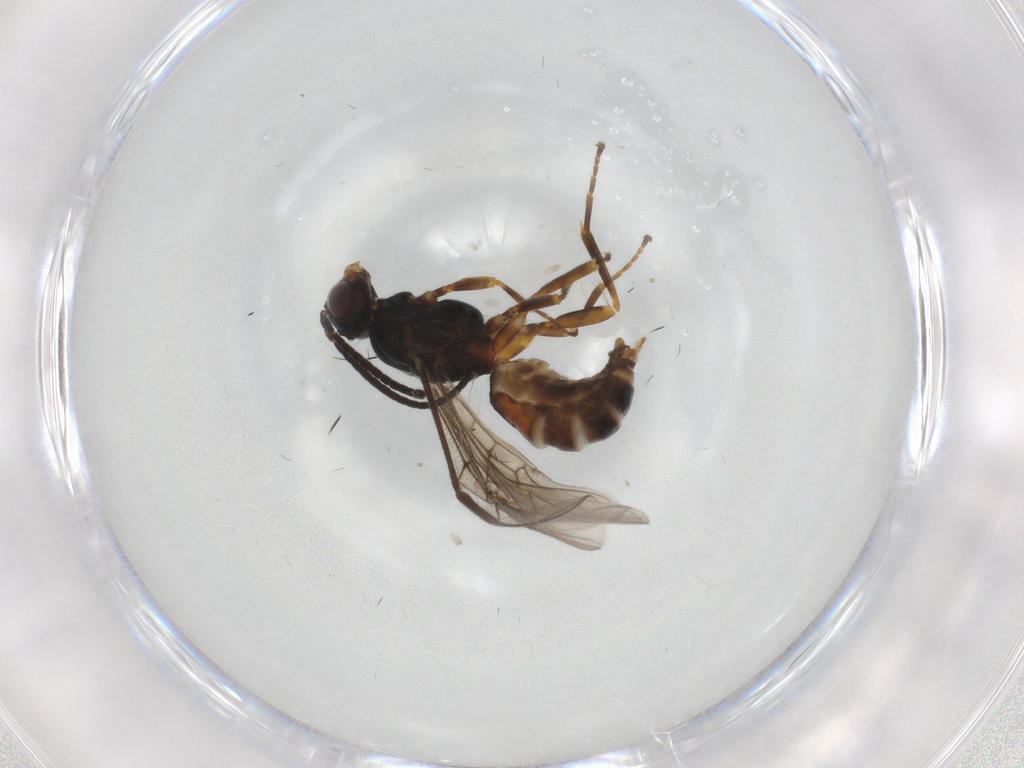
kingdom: Animalia
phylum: Arthropoda
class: Insecta
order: Hymenoptera
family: Braconidae
